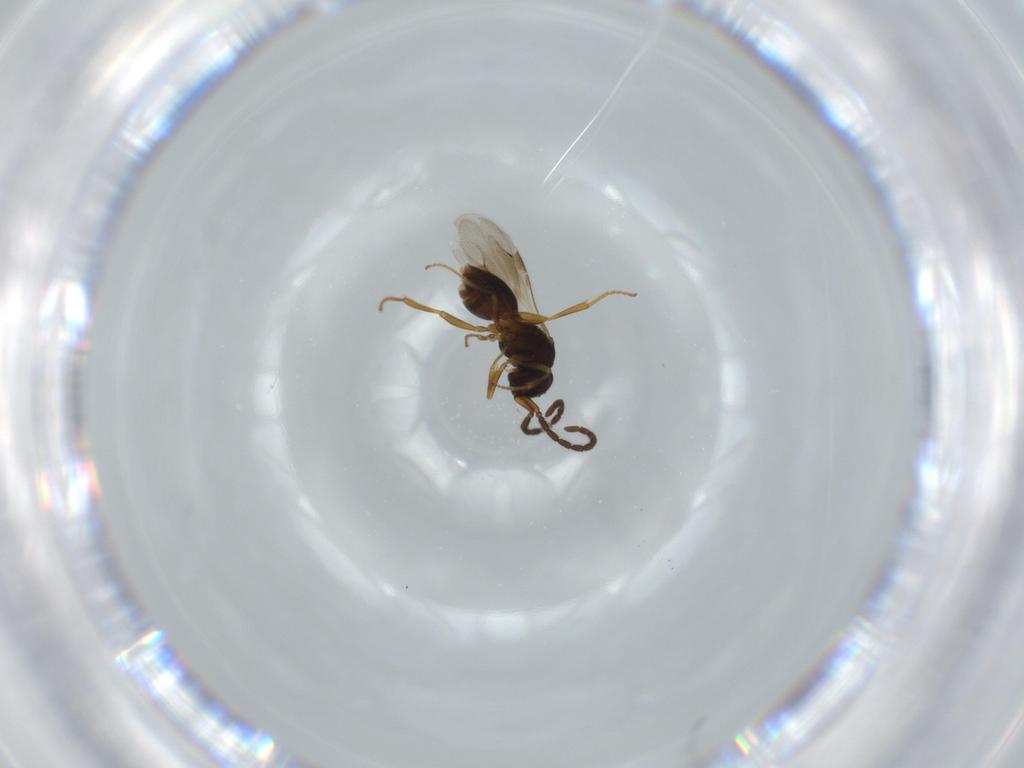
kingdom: Animalia
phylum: Arthropoda
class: Insecta
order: Hymenoptera
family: Megaspilidae
